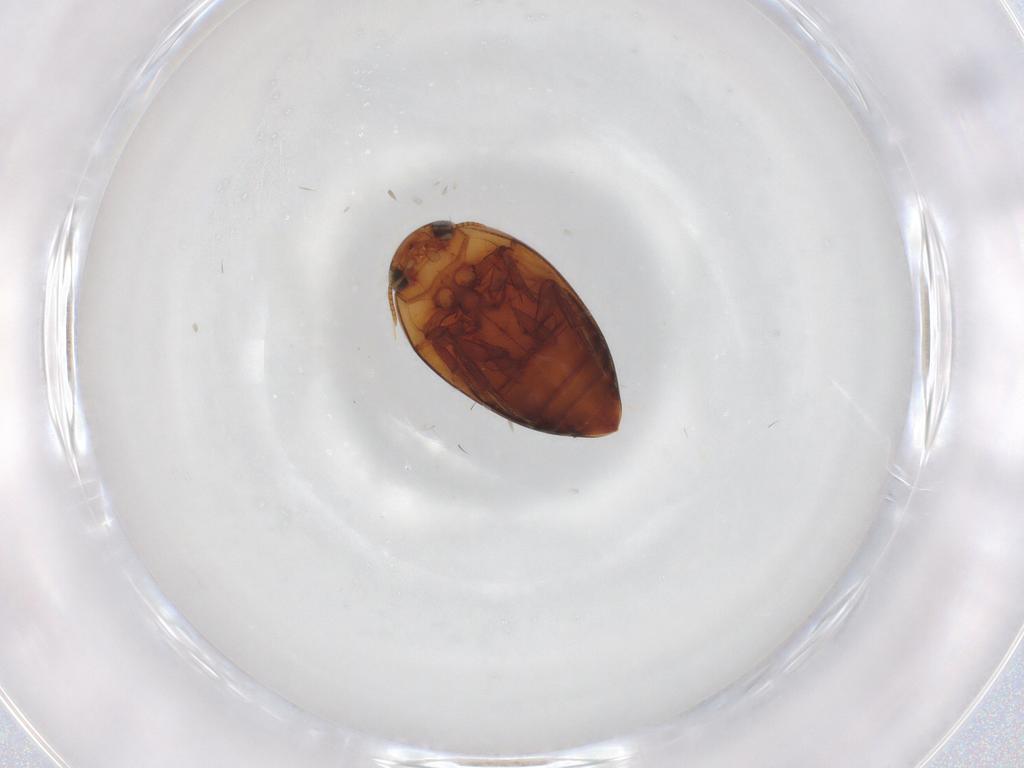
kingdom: Animalia
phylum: Arthropoda
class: Insecta
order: Coleoptera
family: Noteridae
